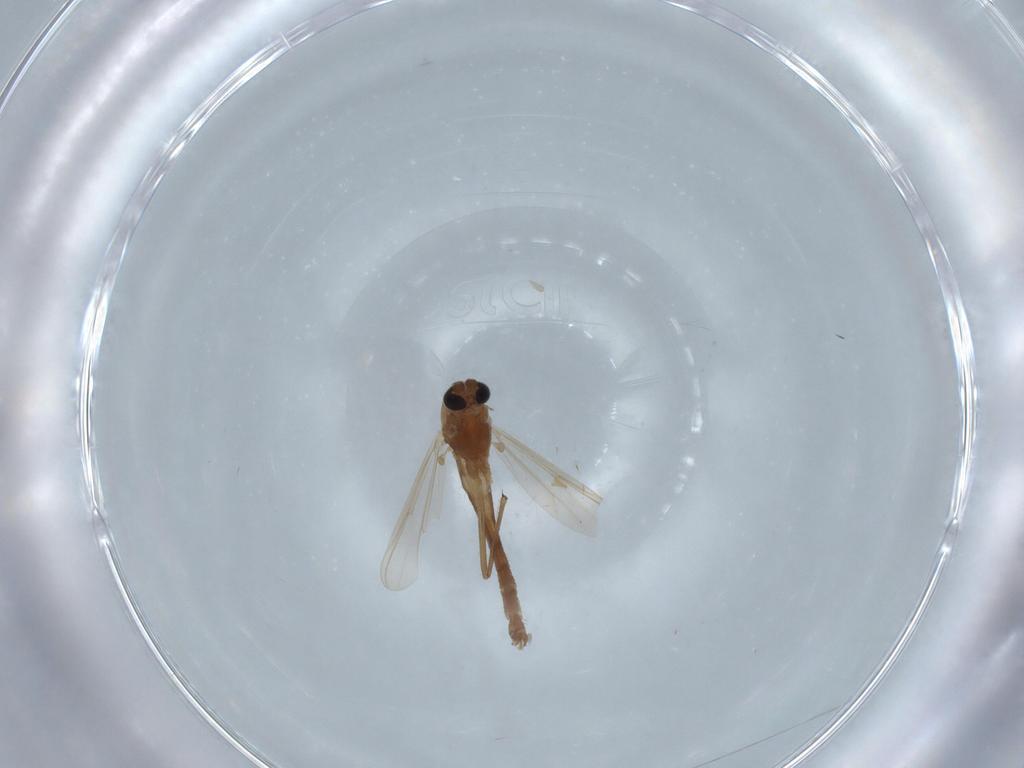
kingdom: Animalia
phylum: Arthropoda
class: Insecta
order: Diptera
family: Chironomidae
